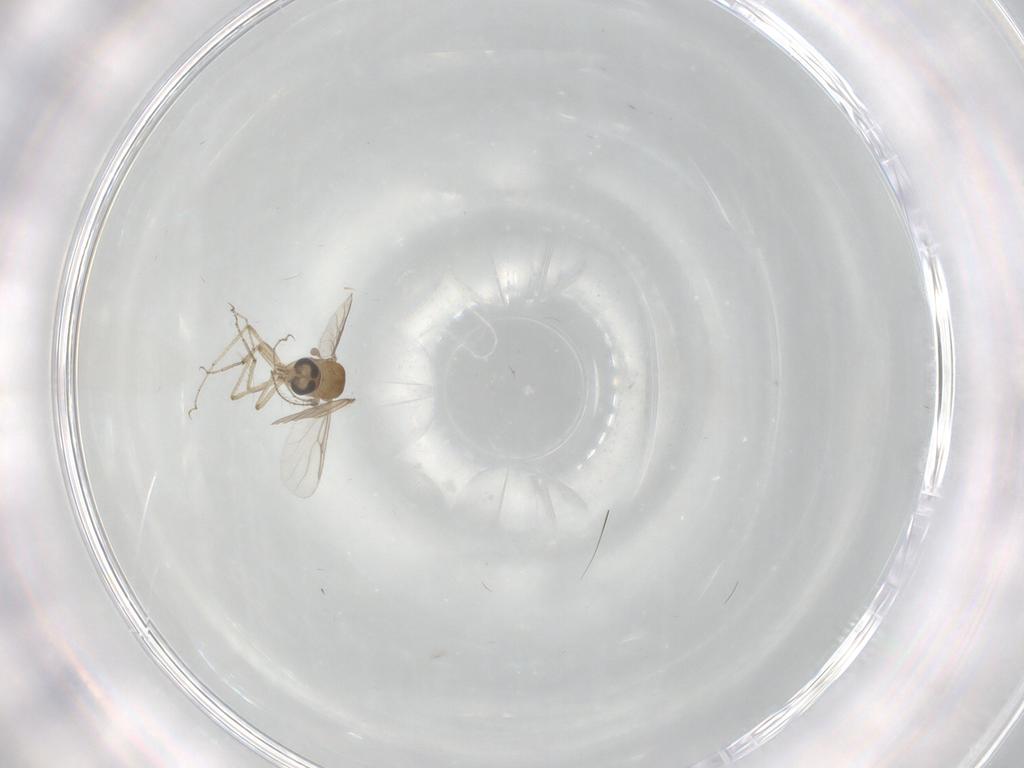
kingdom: Animalia
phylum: Arthropoda
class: Insecta
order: Diptera
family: Chironomidae
